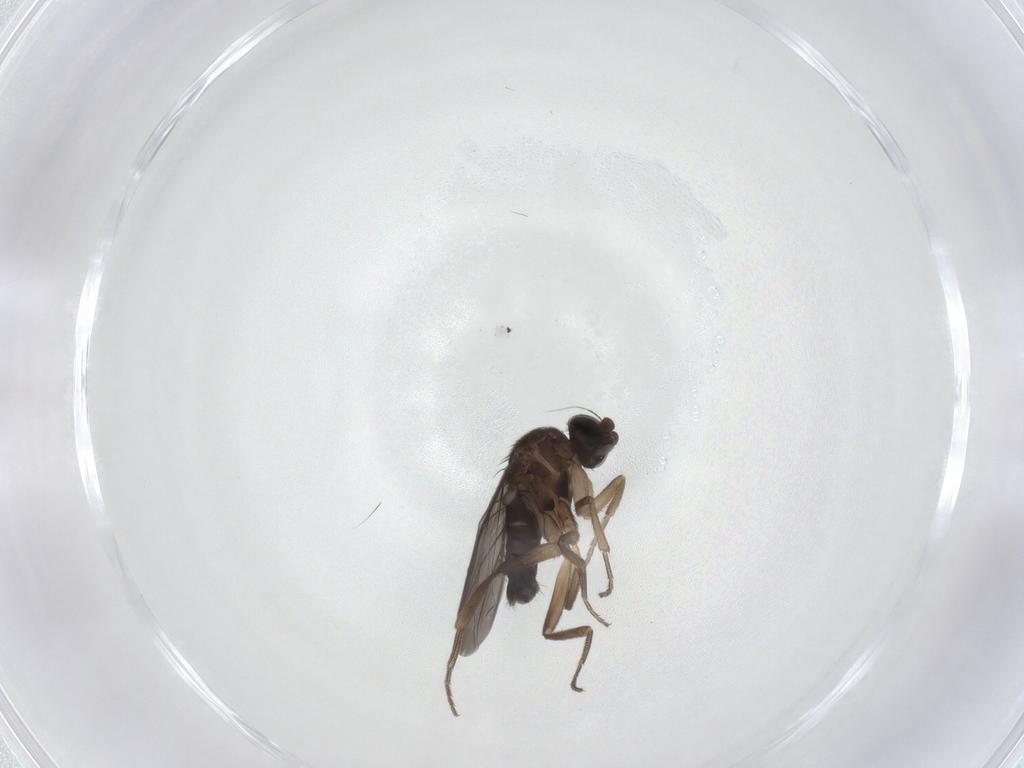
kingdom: Animalia
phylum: Arthropoda
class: Insecta
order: Diptera
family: Phoridae
